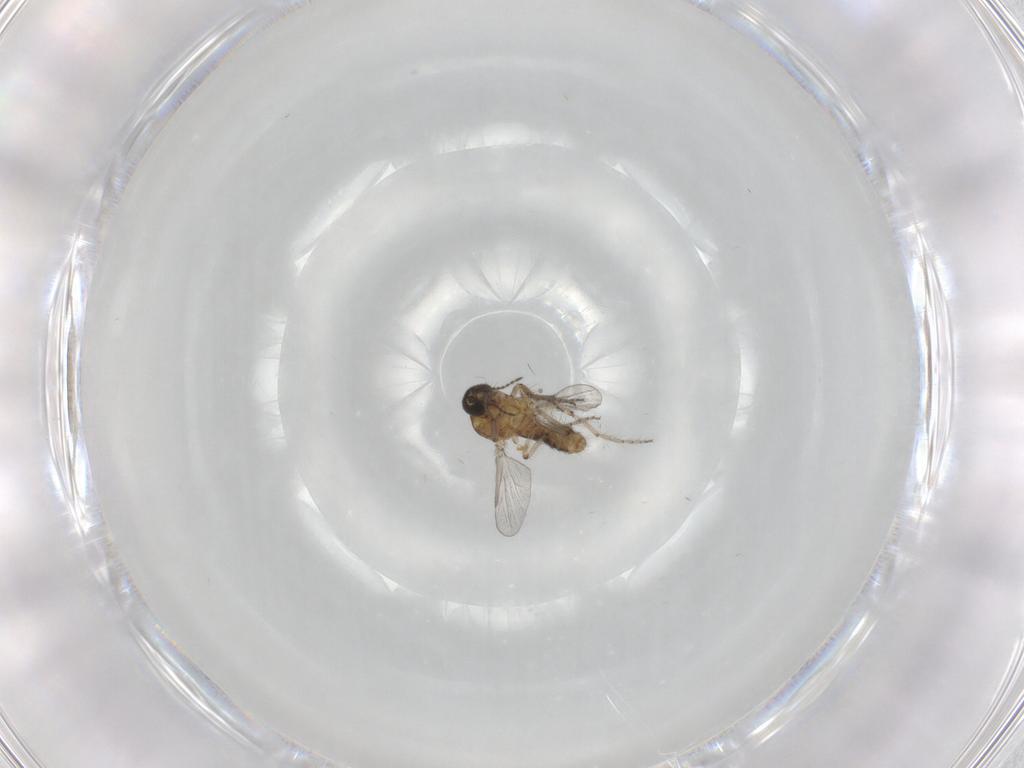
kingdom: Animalia
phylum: Arthropoda
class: Insecta
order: Diptera
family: Ceratopogonidae
